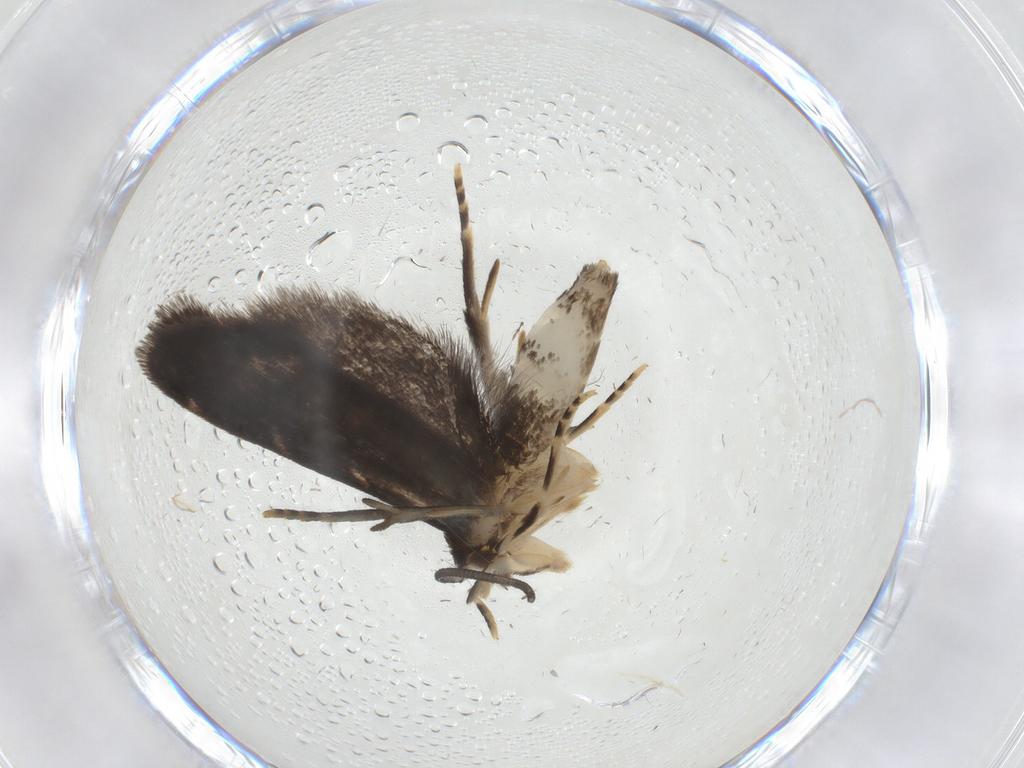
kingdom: Animalia
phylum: Arthropoda
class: Insecta
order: Lepidoptera
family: Dryadaulidae
